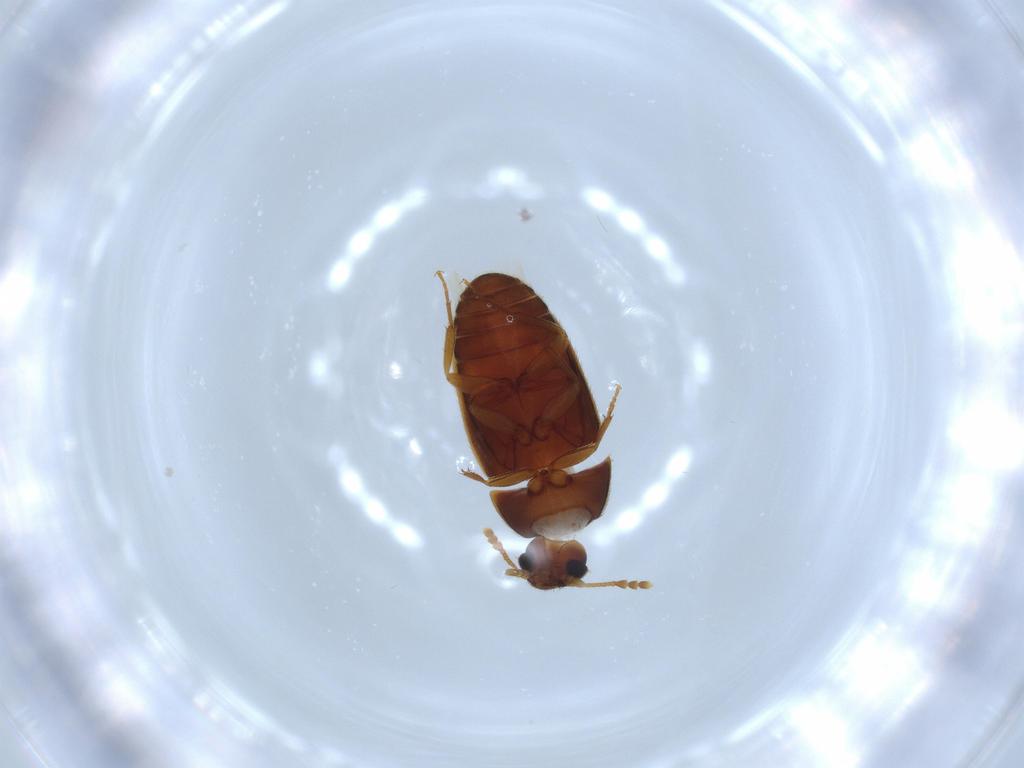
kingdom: Animalia
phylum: Arthropoda
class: Insecta
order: Coleoptera
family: Mycetophagidae
